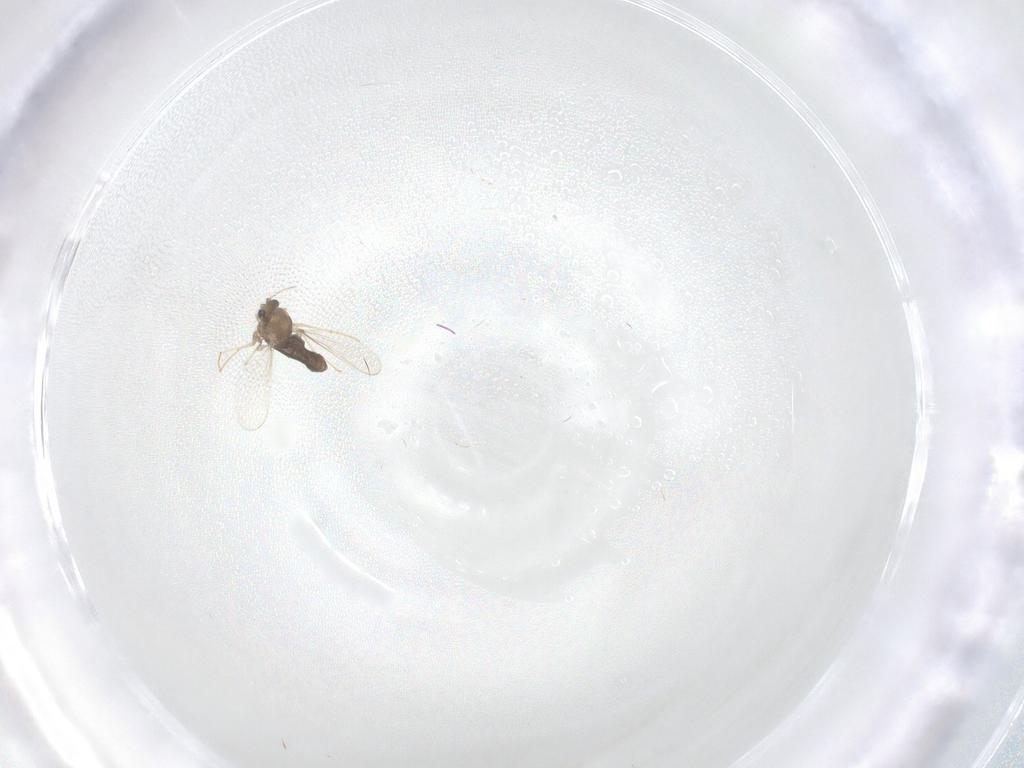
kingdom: Animalia
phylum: Arthropoda
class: Insecta
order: Diptera
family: Chironomidae
